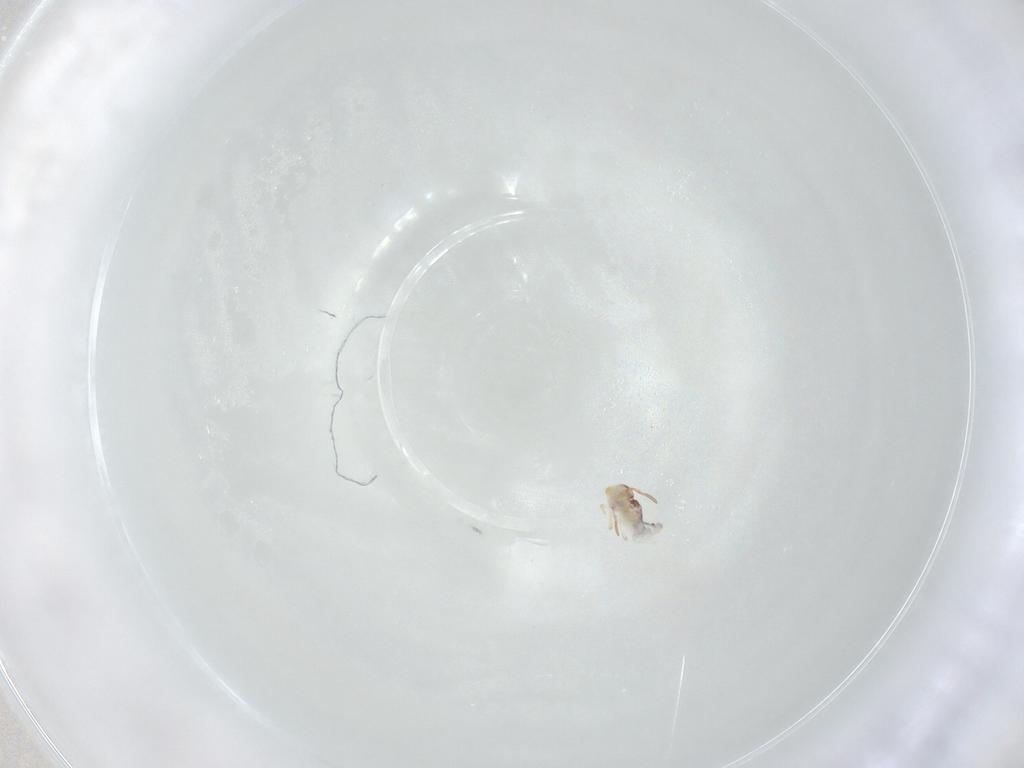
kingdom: Animalia
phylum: Arthropoda
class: Collembola
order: Symphypleona
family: Bourletiellidae
